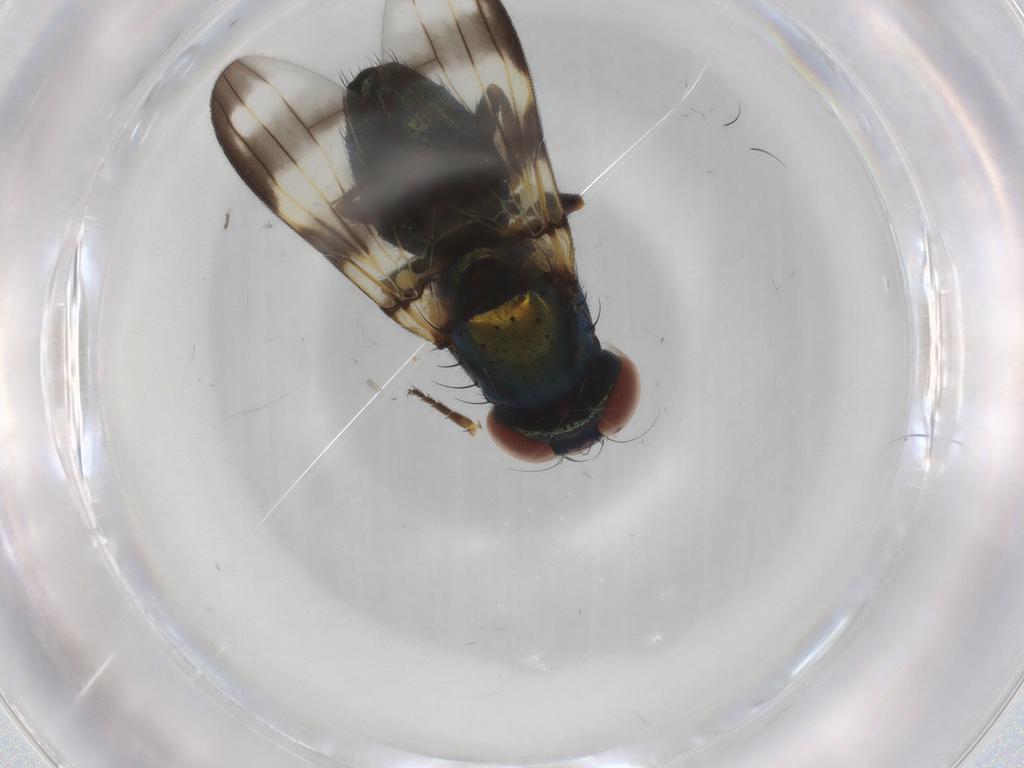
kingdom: Animalia
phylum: Arthropoda
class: Insecta
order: Diptera
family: Ulidiidae
